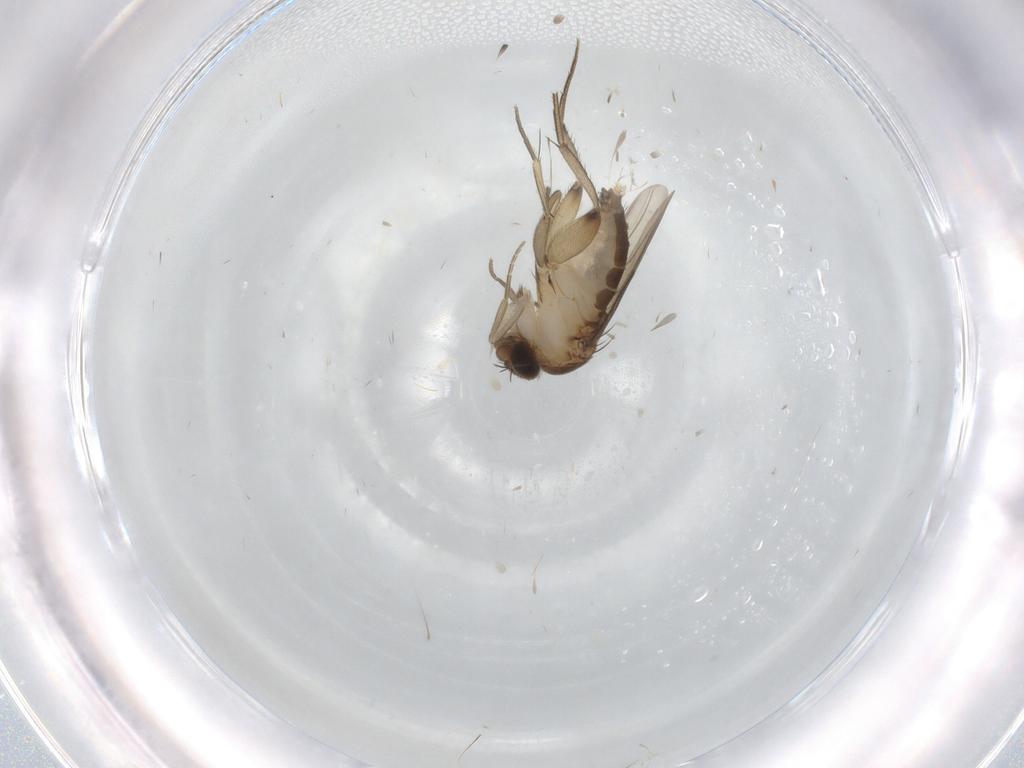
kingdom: Animalia
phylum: Arthropoda
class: Insecta
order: Diptera
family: Phoridae
